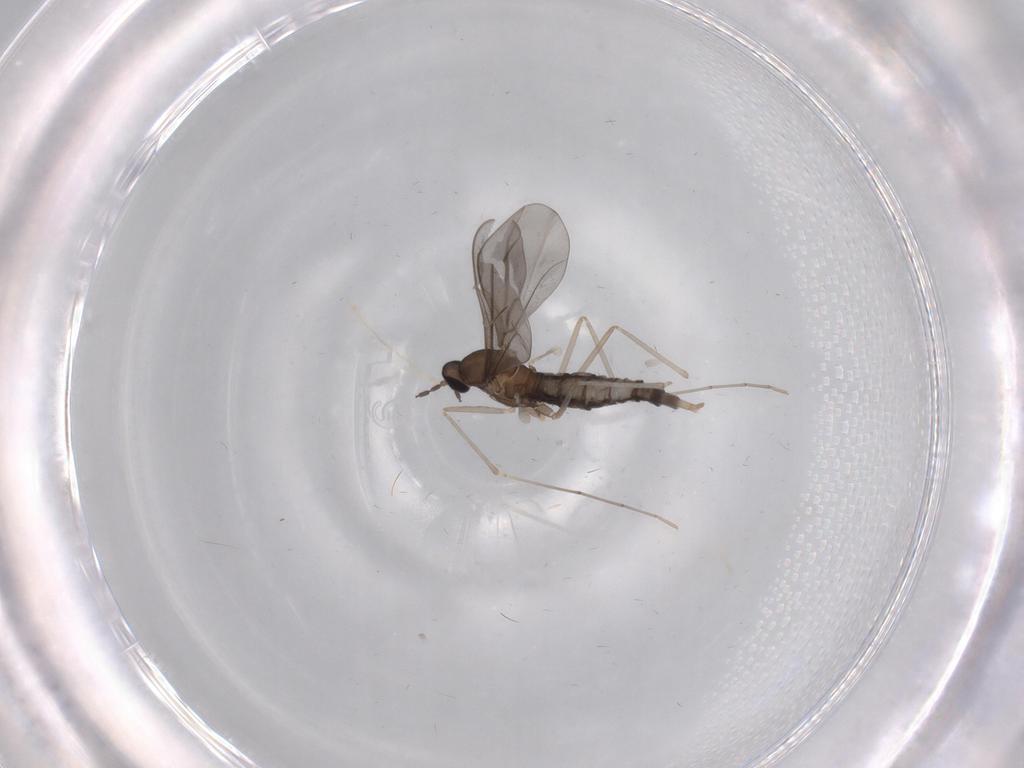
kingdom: Animalia
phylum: Arthropoda
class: Insecta
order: Diptera
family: Cecidomyiidae
